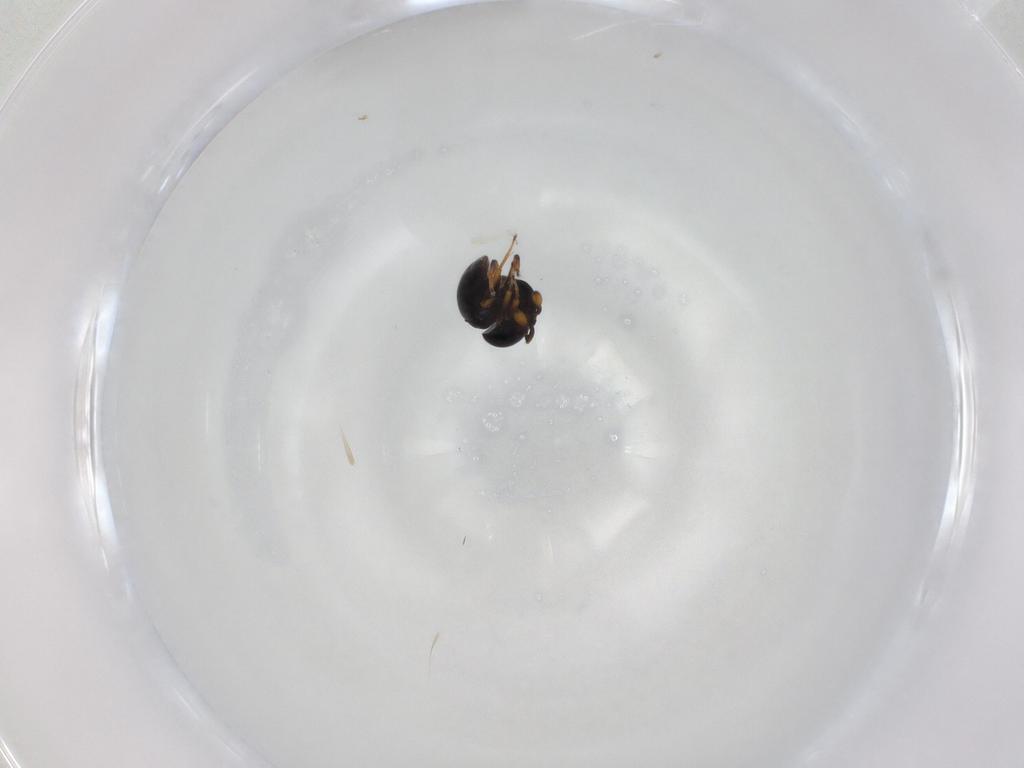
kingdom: Animalia
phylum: Arthropoda
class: Insecta
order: Hymenoptera
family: Scelionidae
